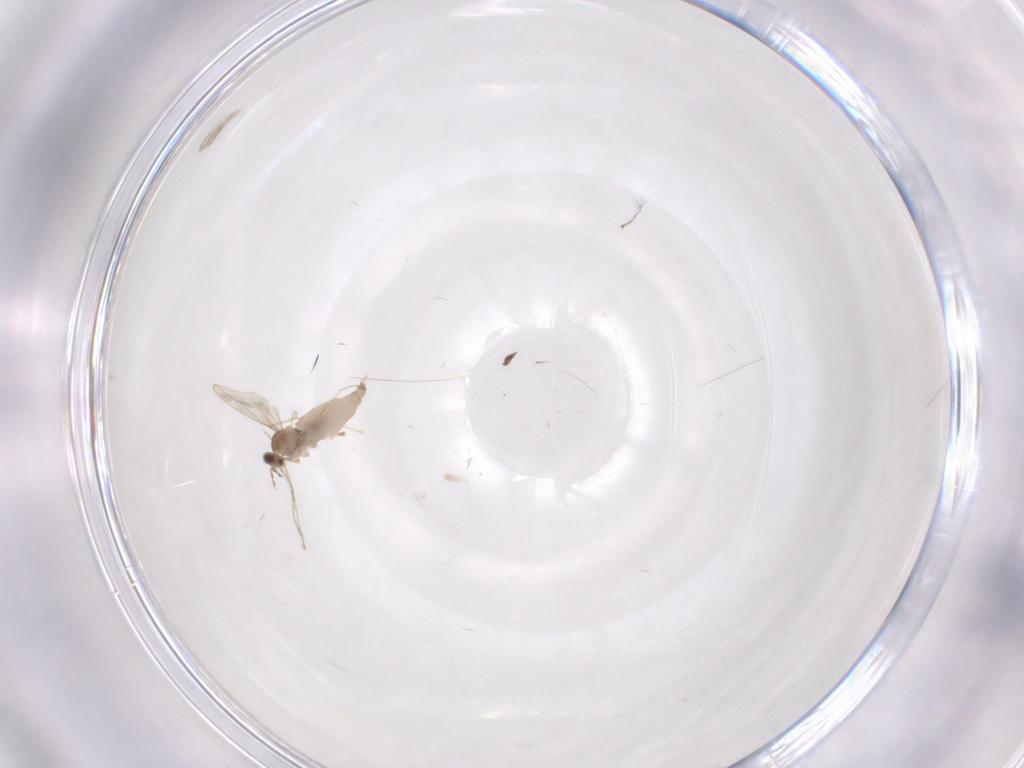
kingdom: Animalia
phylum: Arthropoda
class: Insecta
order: Diptera
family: Cecidomyiidae
